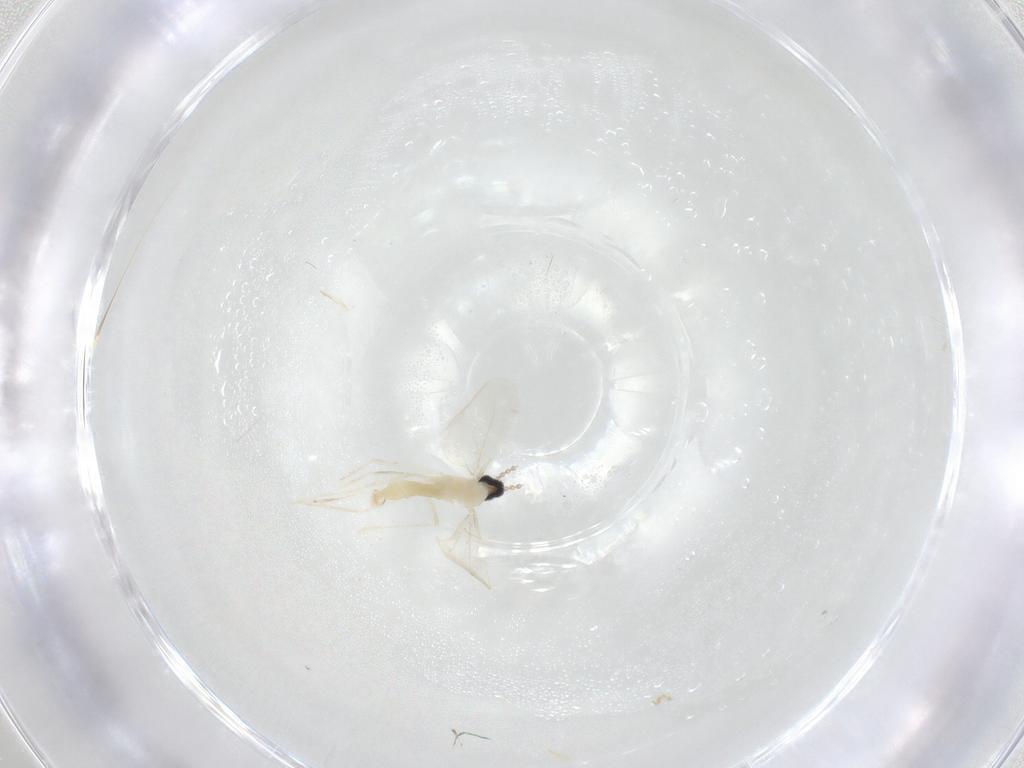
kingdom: Animalia
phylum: Arthropoda
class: Insecta
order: Diptera
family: Cecidomyiidae
